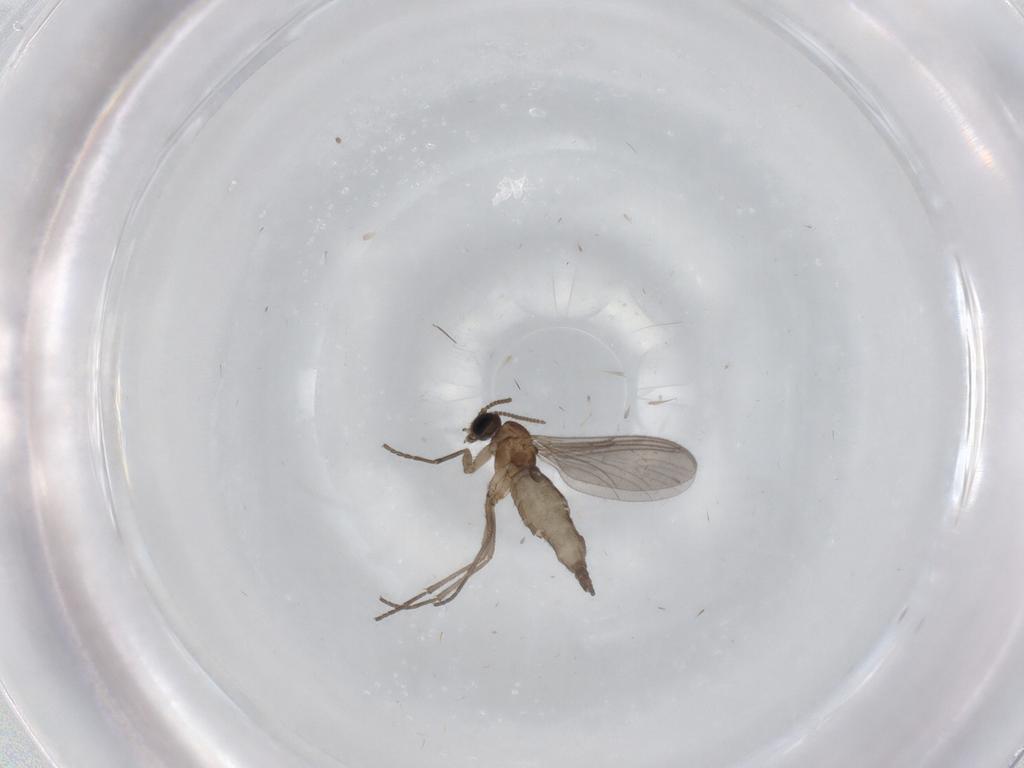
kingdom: Animalia
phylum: Arthropoda
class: Insecta
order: Diptera
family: Sciaridae
